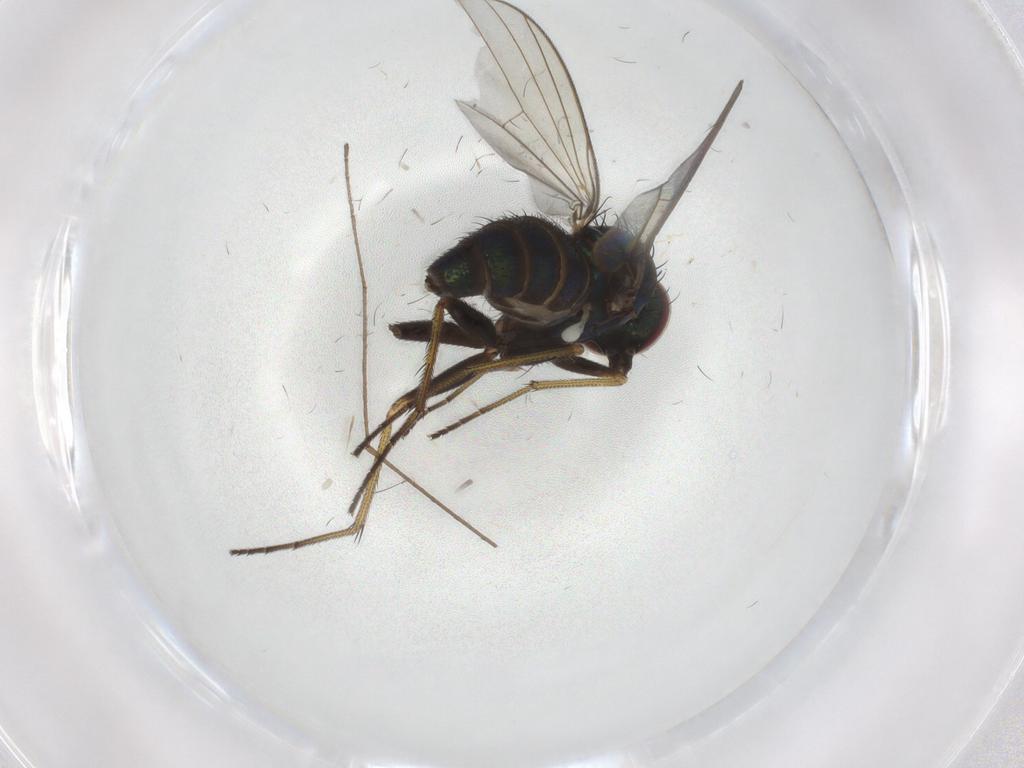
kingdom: Animalia
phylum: Arthropoda
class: Insecta
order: Diptera
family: Dolichopodidae
